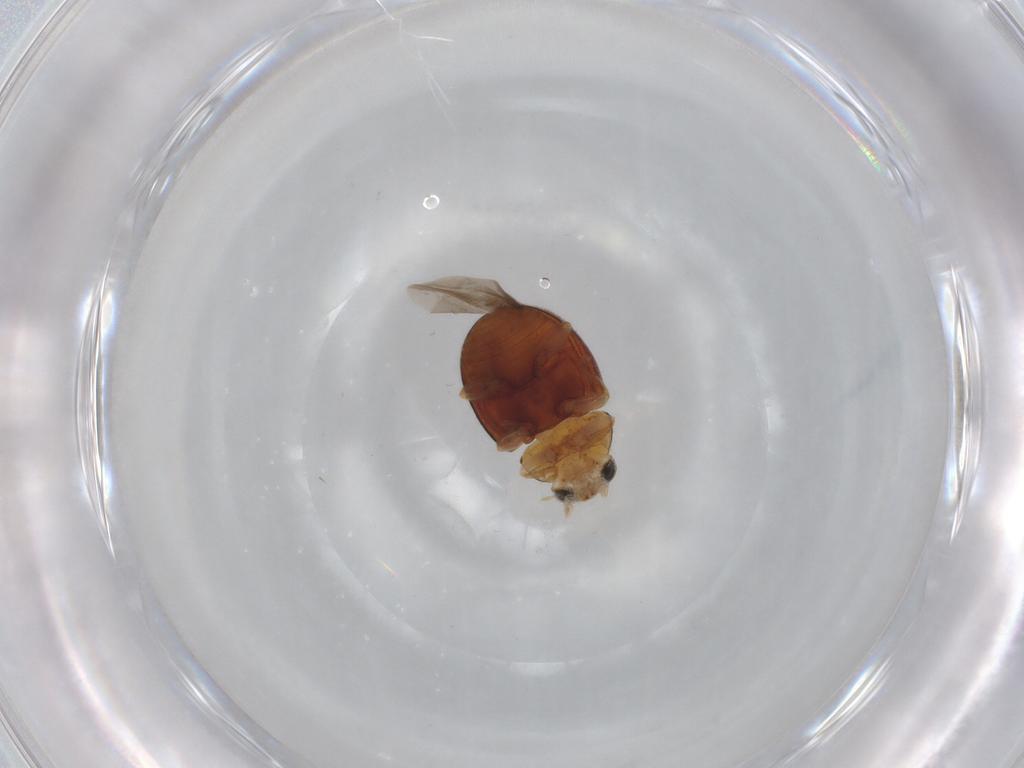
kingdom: Animalia
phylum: Arthropoda
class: Insecta
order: Coleoptera
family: Coccinellidae
